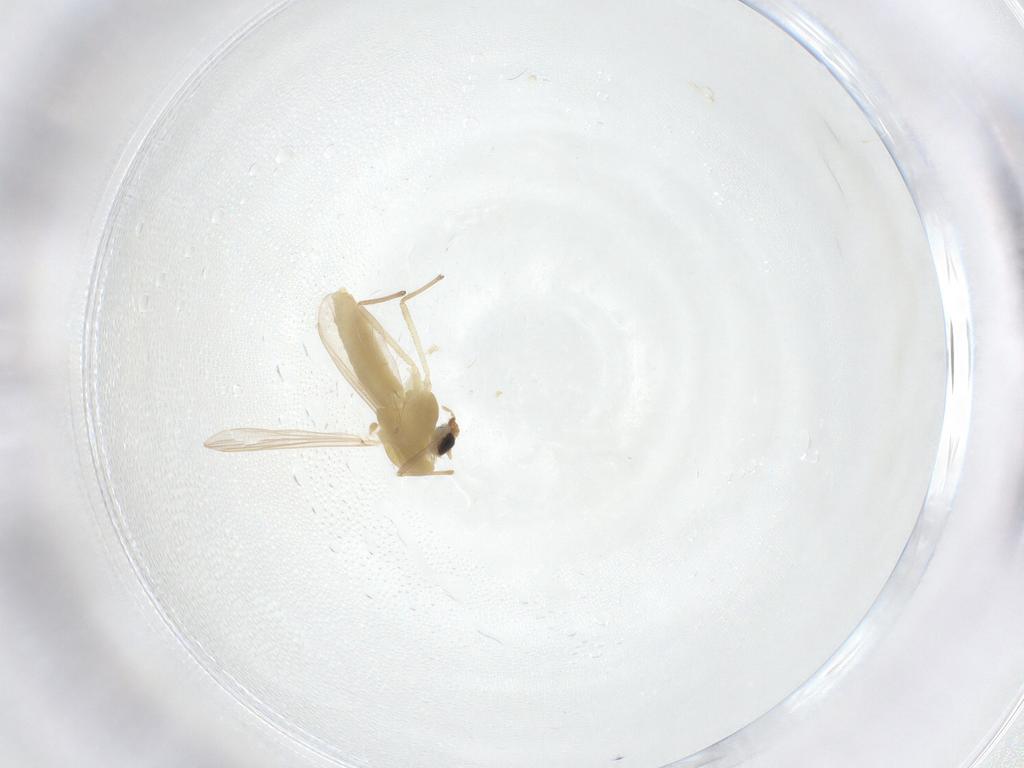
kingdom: Animalia
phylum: Arthropoda
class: Insecta
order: Diptera
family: Chironomidae
